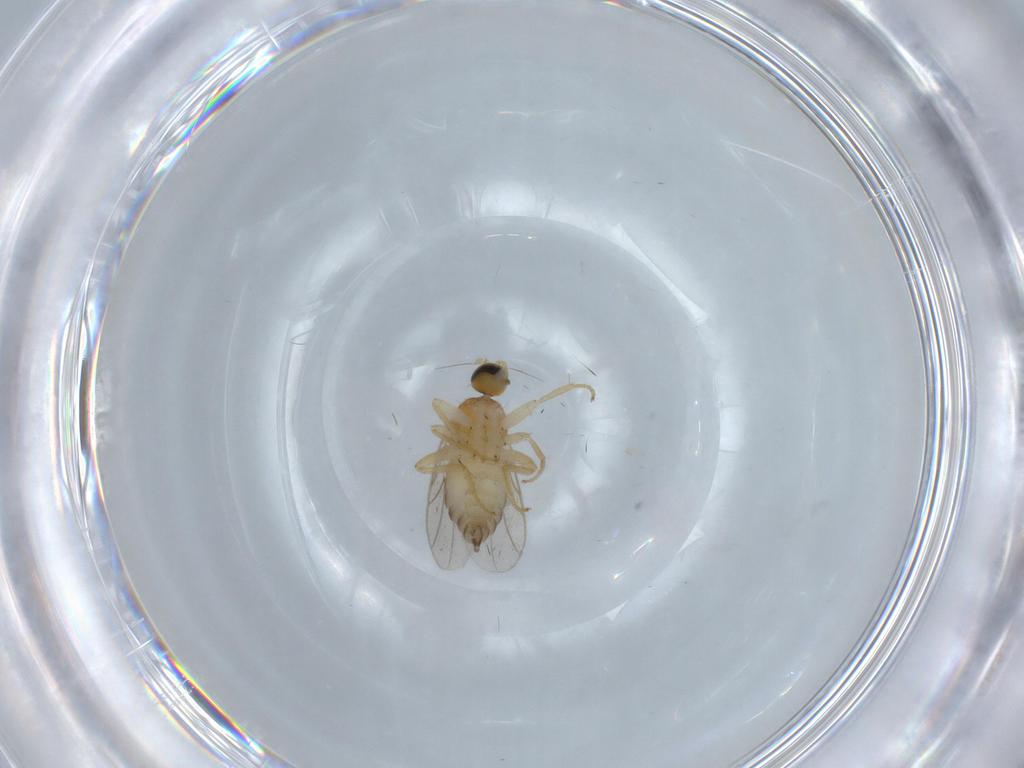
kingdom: Animalia
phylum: Arthropoda
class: Insecta
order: Diptera
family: Hybotidae
